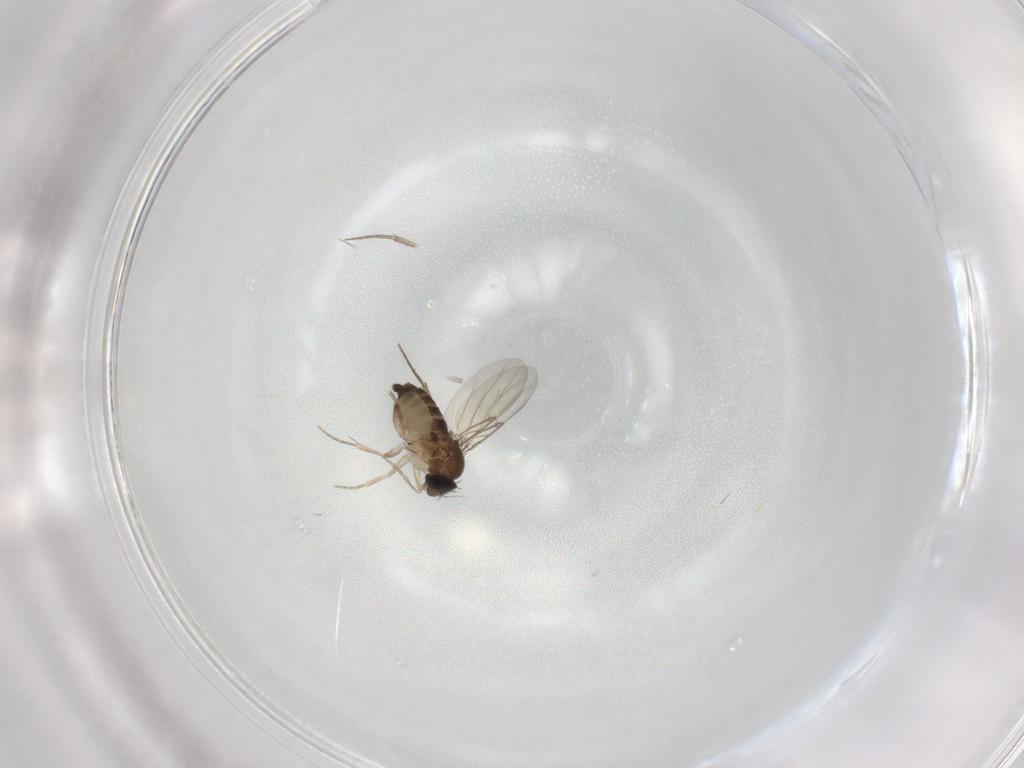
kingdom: Animalia
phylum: Arthropoda
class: Insecta
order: Diptera
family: Phoridae
